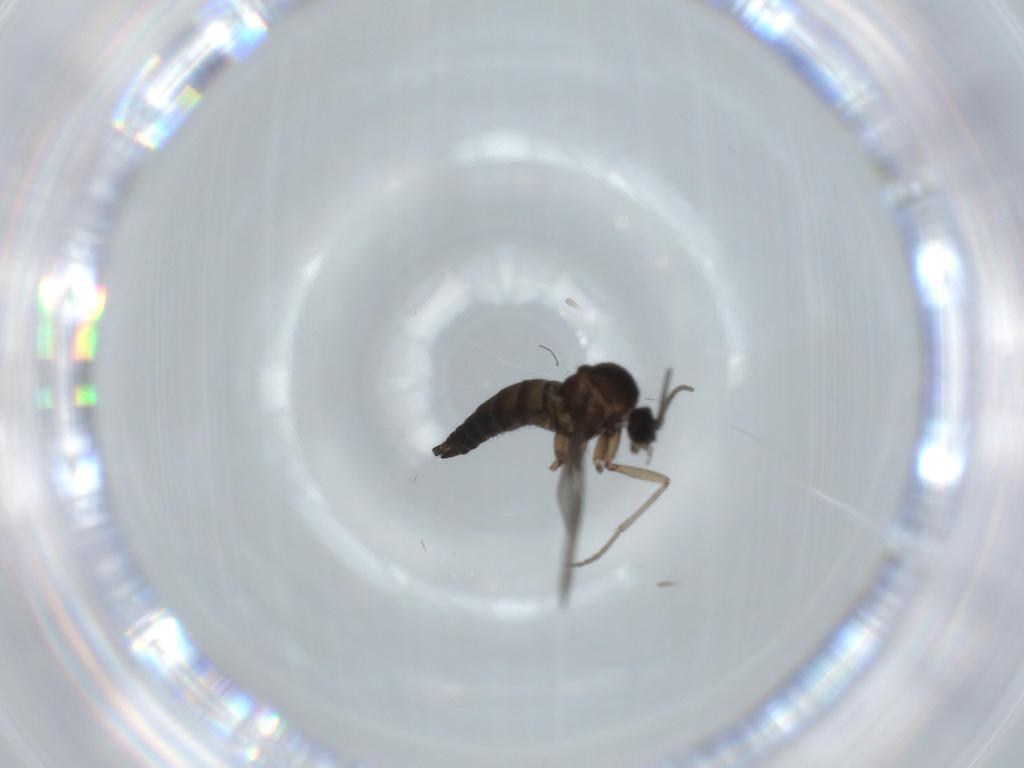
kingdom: Animalia
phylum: Arthropoda
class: Insecta
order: Diptera
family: Sciaridae
